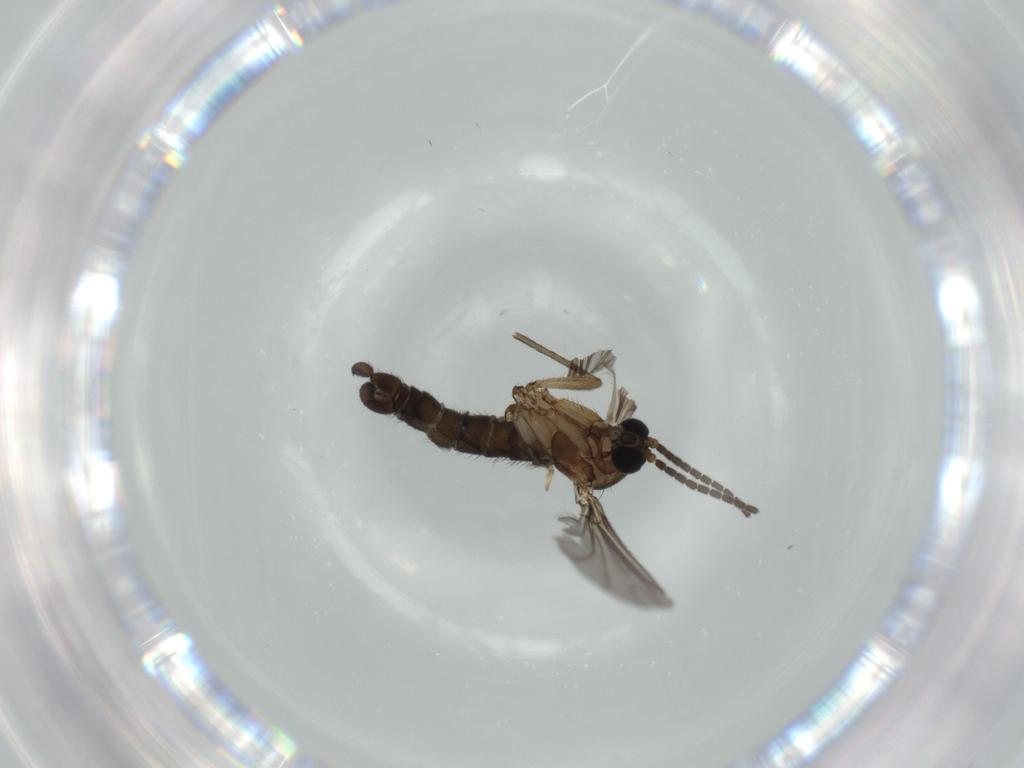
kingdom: Animalia
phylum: Arthropoda
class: Insecta
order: Diptera
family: Sciaridae
